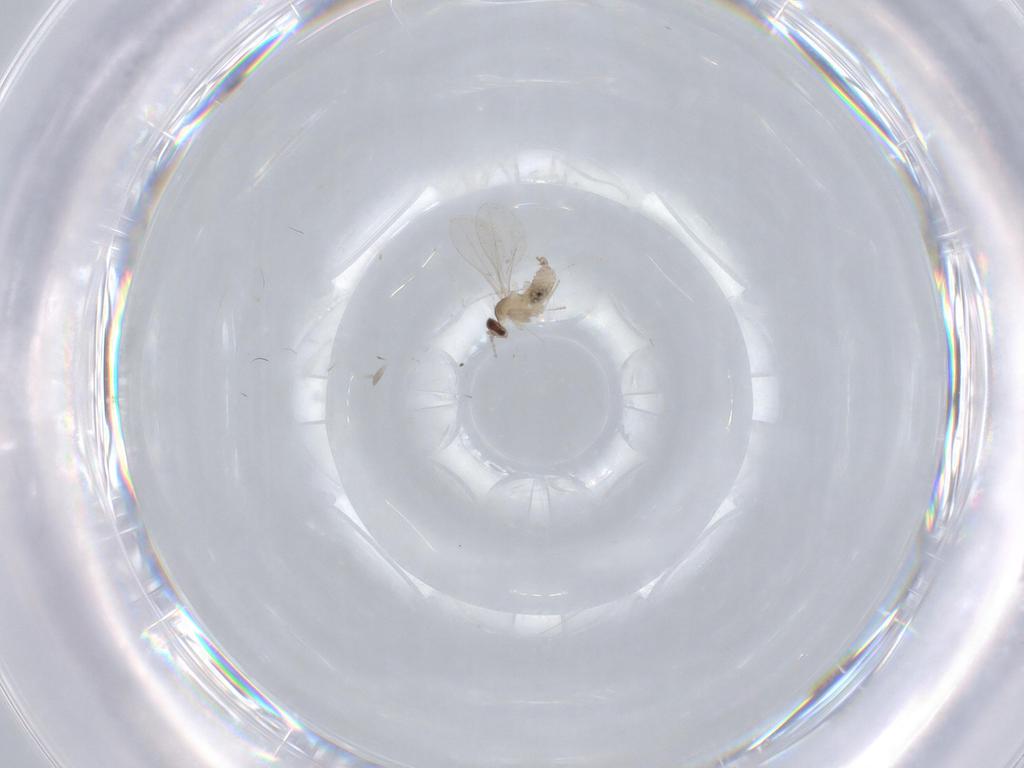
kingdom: Animalia
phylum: Arthropoda
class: Insecta
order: Diptera
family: Cecidomyiidae
